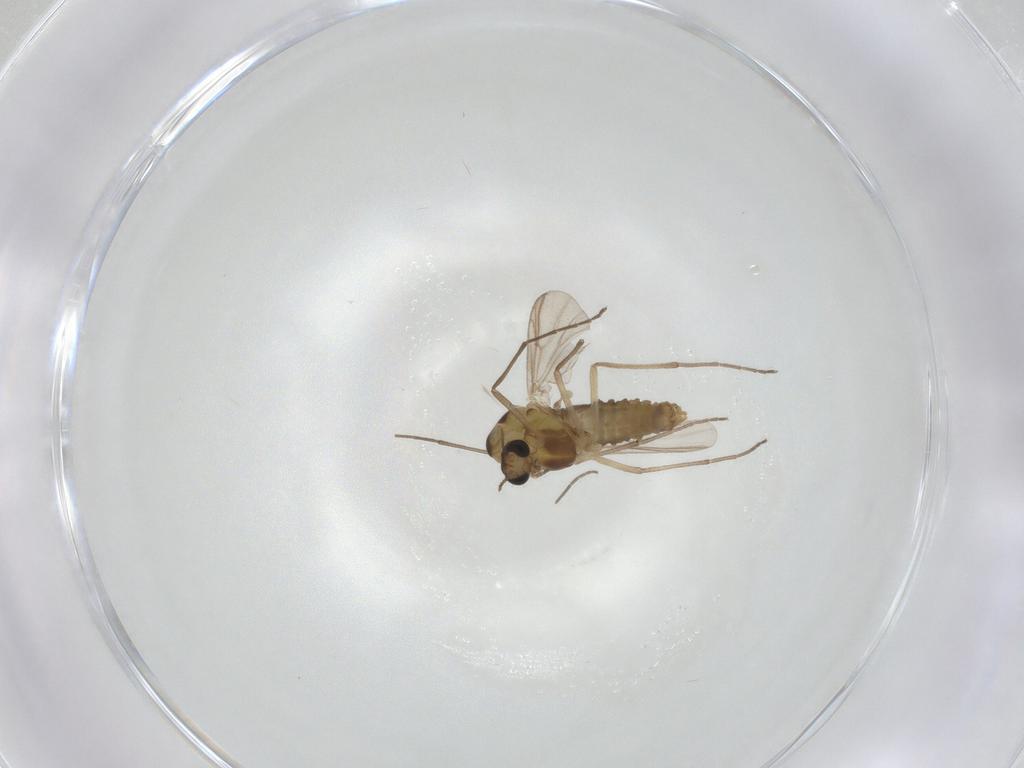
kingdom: Animalia
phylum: Arthropoda
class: Insecta
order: Diptera
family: Chironomidae
